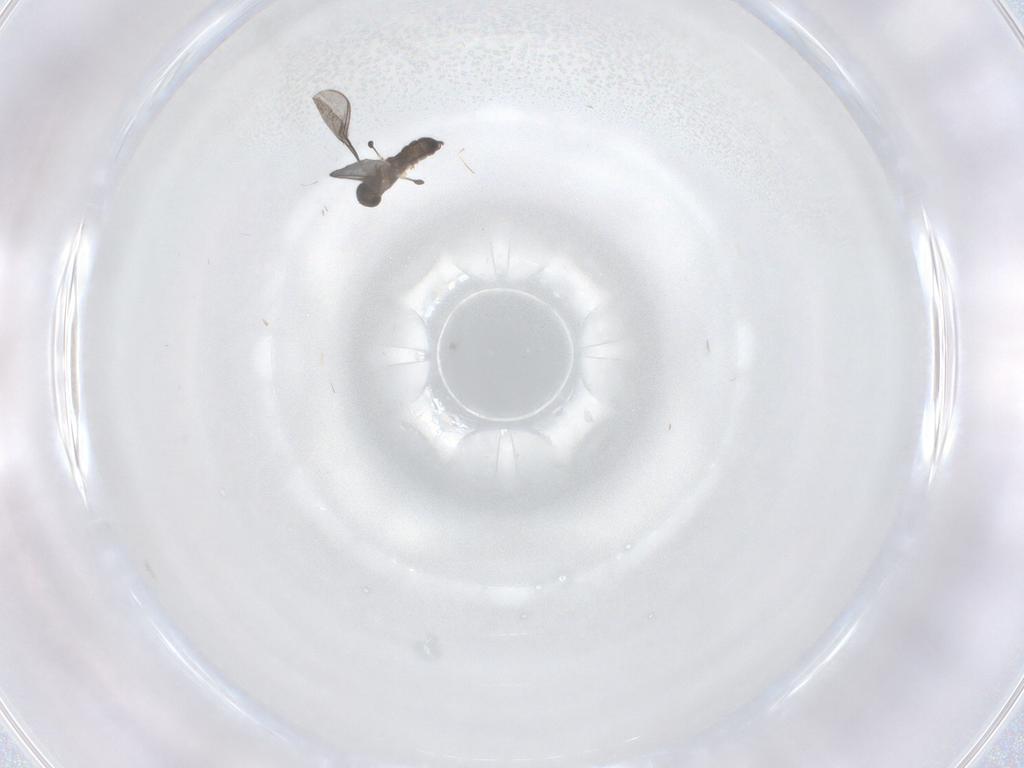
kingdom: Animalia
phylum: Arthropoda
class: Insecta
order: Diptera
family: Sciaridae
